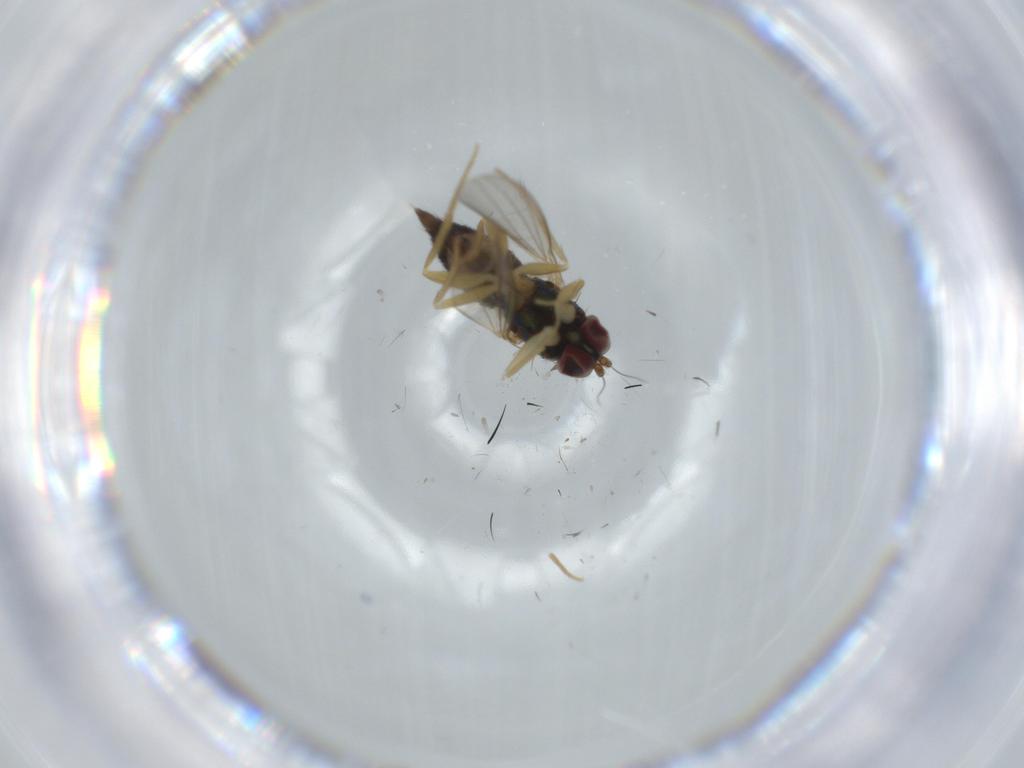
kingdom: Animalia
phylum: Arthropoda
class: Insecta
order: Diptera
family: Dolichopodidae
